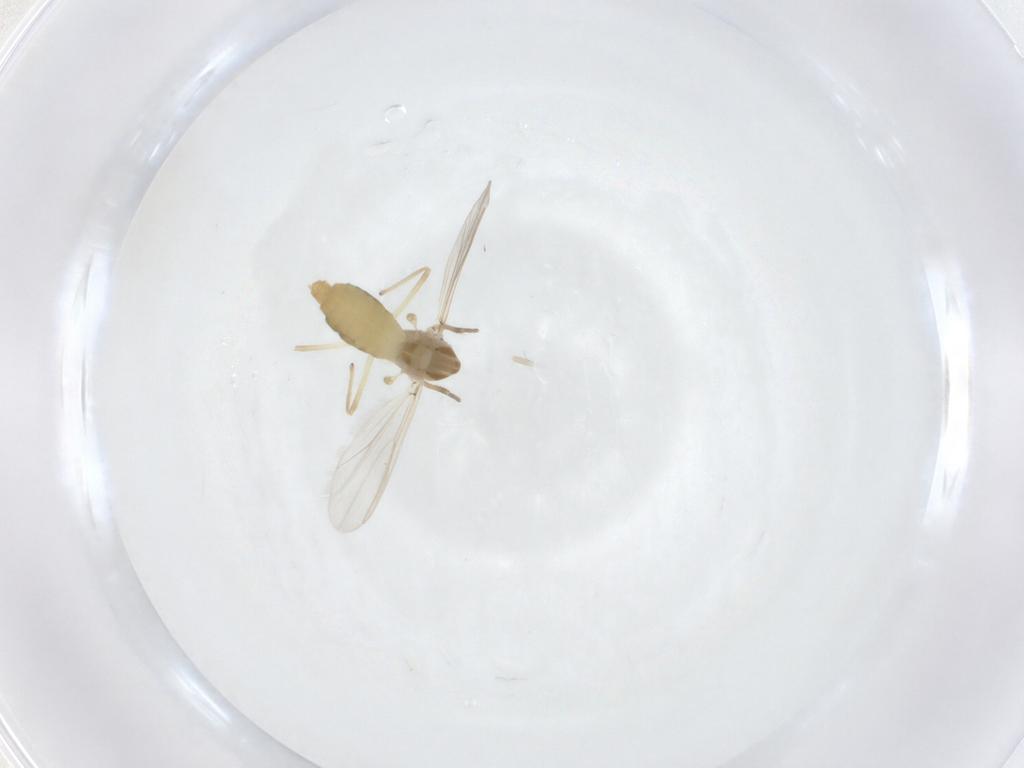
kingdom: Animalia
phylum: Arthropoda
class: Insecta
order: Diptera
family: Chironomidae
